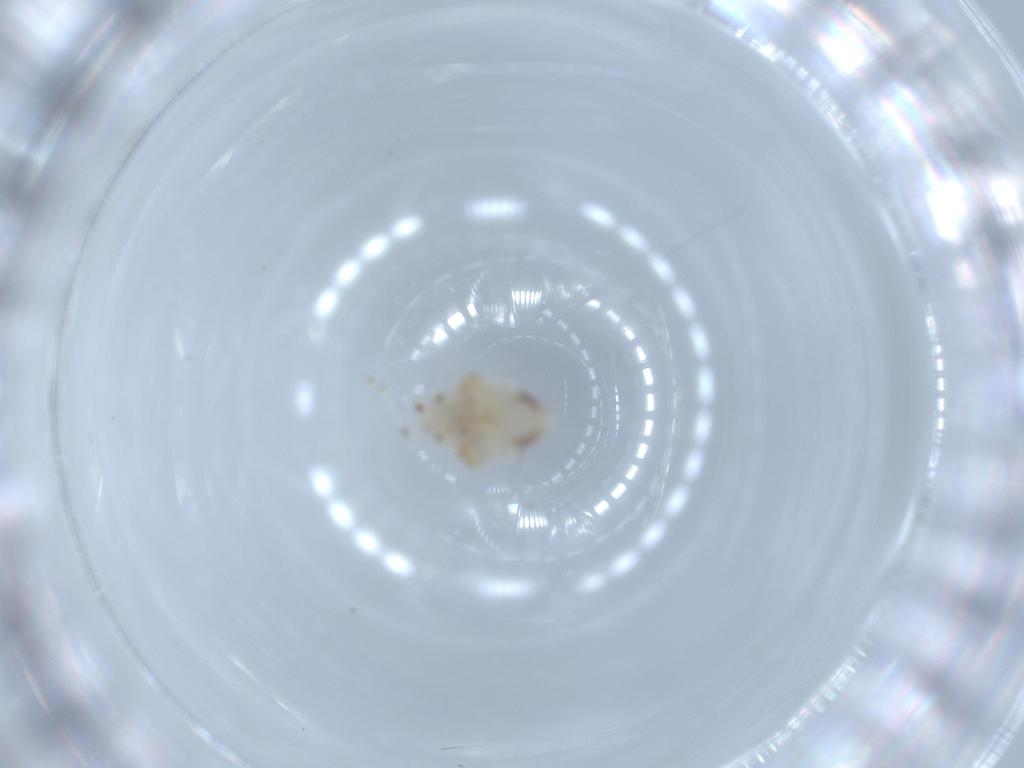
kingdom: Animalia
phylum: Arthropoda
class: Insecta
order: Hemiptera
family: Nogodinidae
